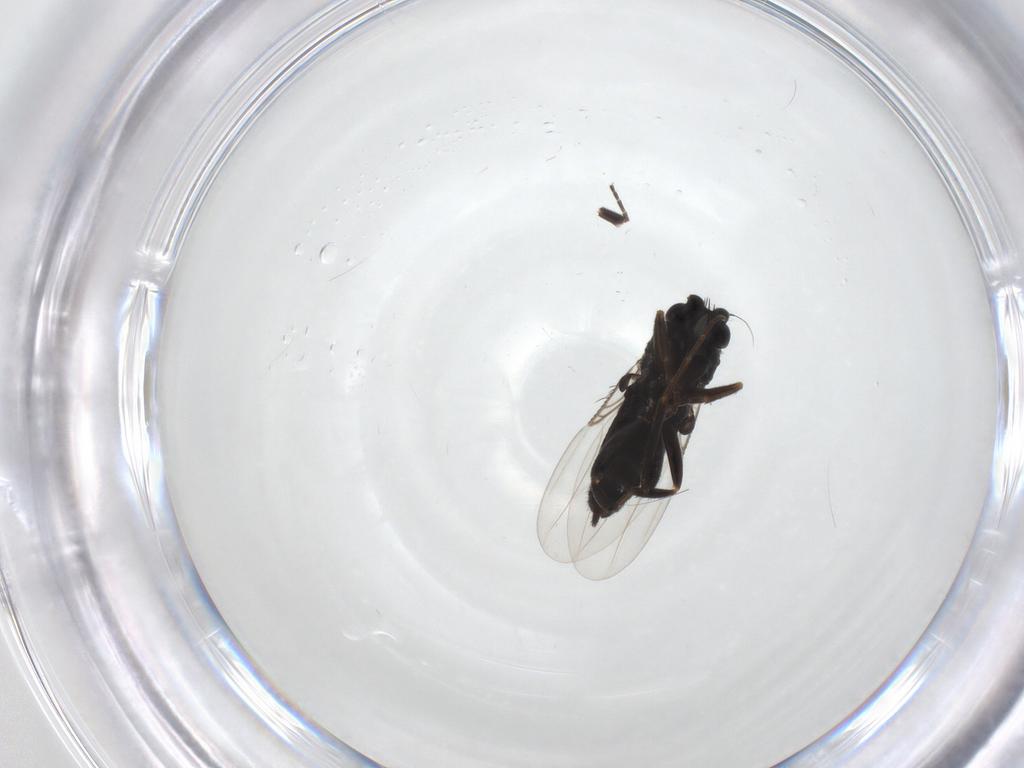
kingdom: Animalia
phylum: Arthropoda
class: Insecta
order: Diptera
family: Phoridae
